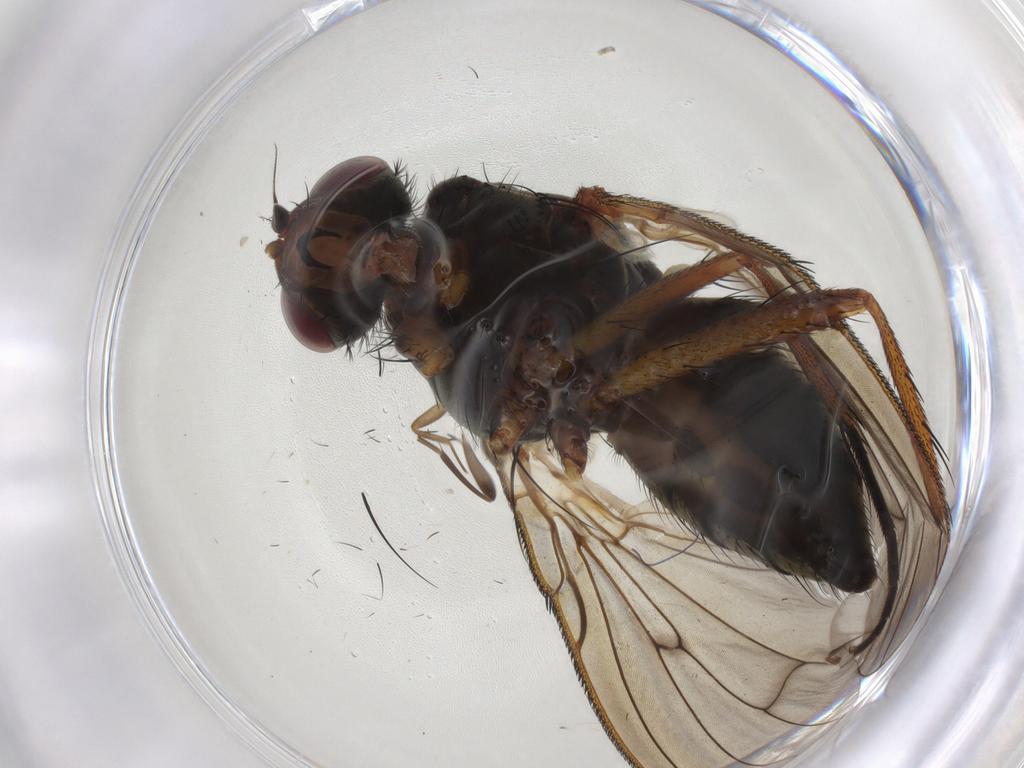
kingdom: Animalia
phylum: Arthropoda
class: Insecta
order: Diptera
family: Anthomyiidae
